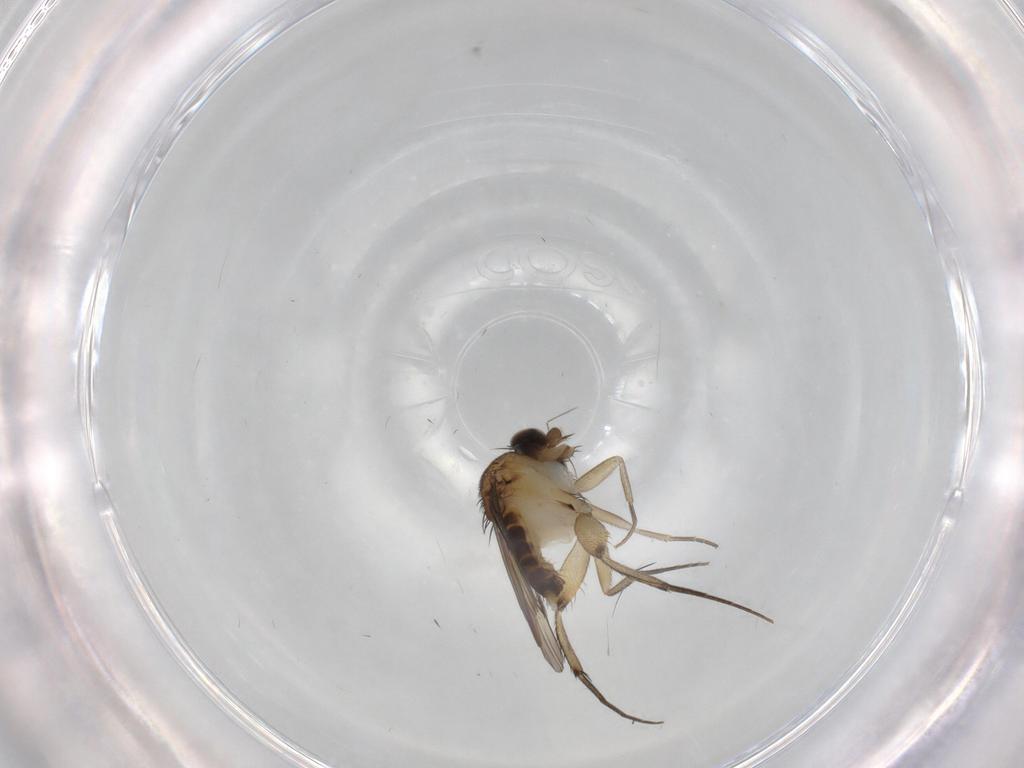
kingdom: Animalia
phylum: Arthropoda
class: Insecta
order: Diptera
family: Phoridae
